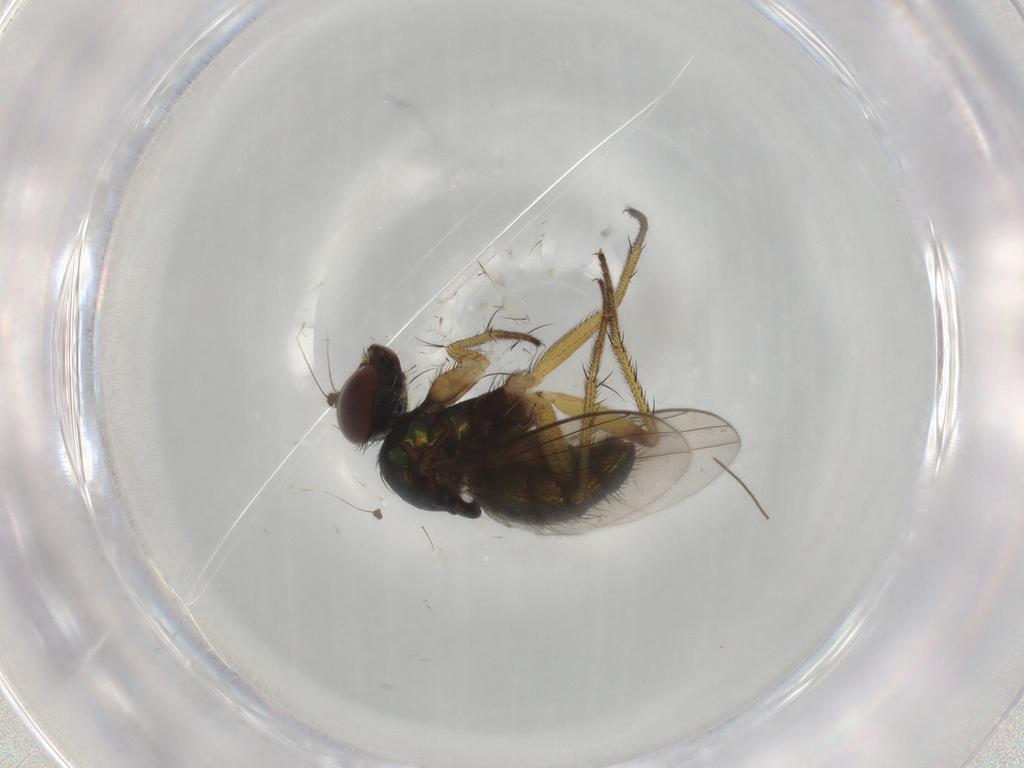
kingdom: Animalia
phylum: Arthropoda
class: Insecta
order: Diptera
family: Dolichopodidae
